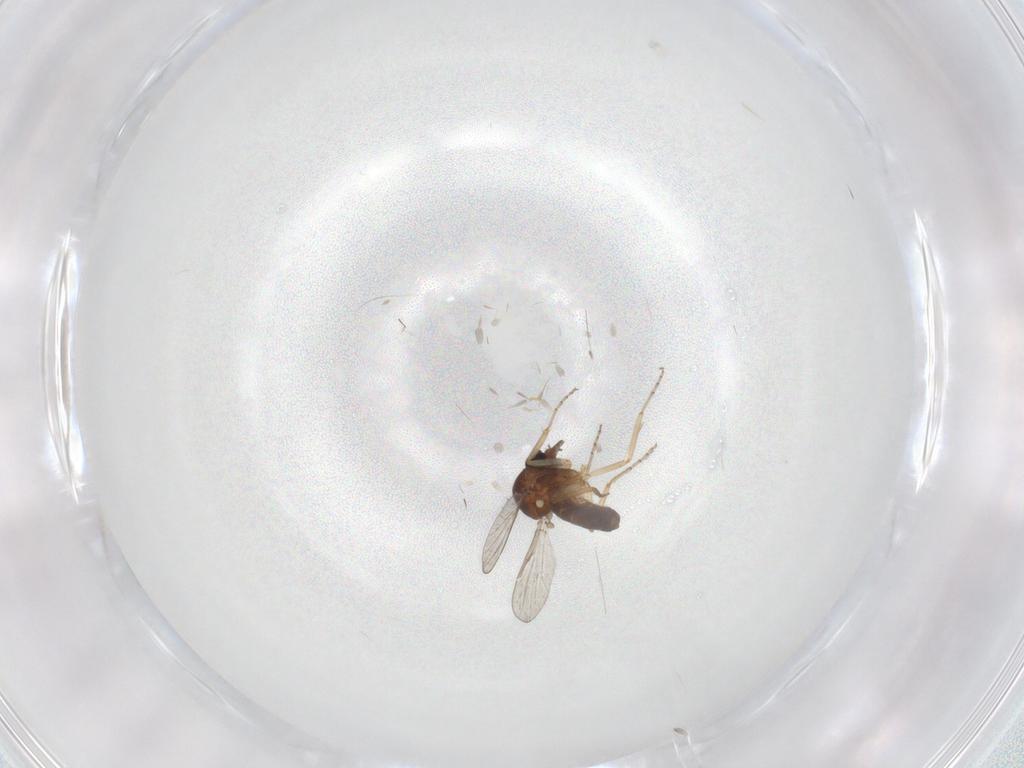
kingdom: Animalia
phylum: Arthropoda
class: Insecta
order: Diptera
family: Ceratopogonidae
